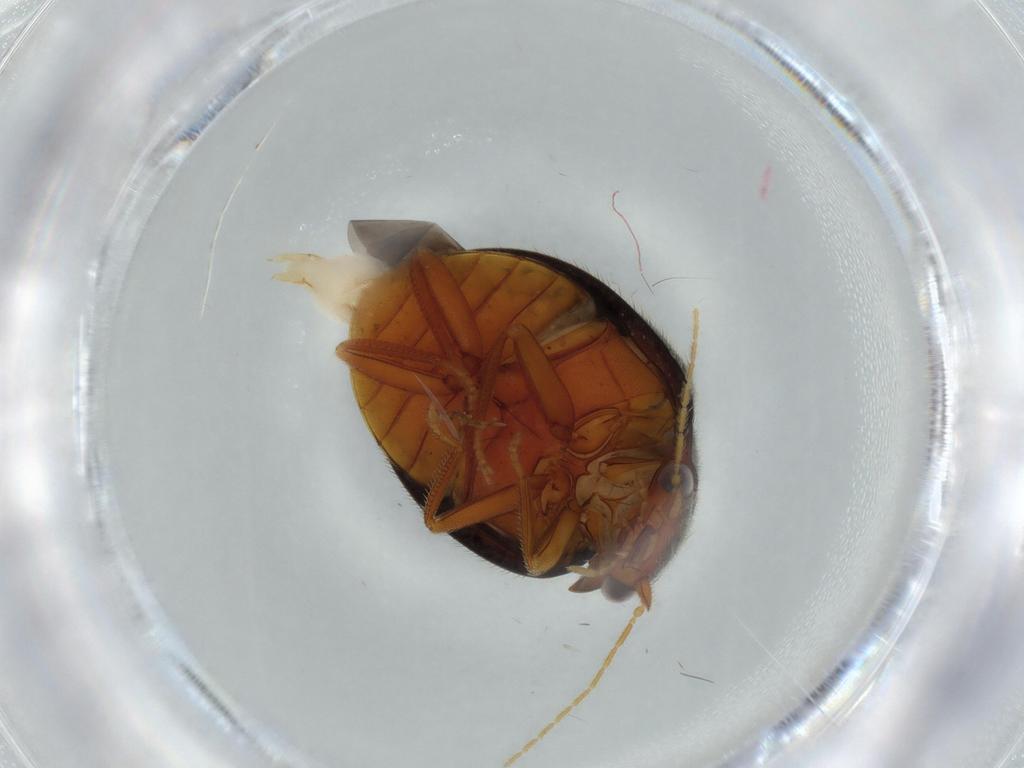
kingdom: Animalia
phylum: Arthropoda
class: Insecta
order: Coleoptera
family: Scirtidae
